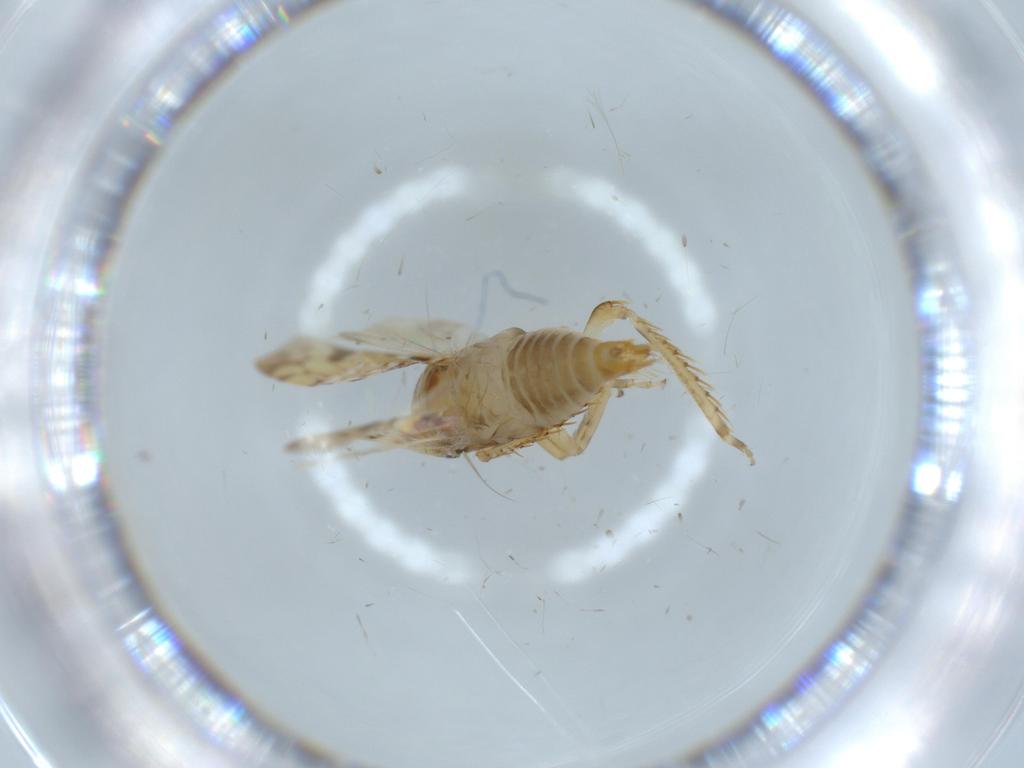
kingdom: Animalia
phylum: Arthropoda
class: Insecta
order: Hemiptera
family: Cicadellidae
